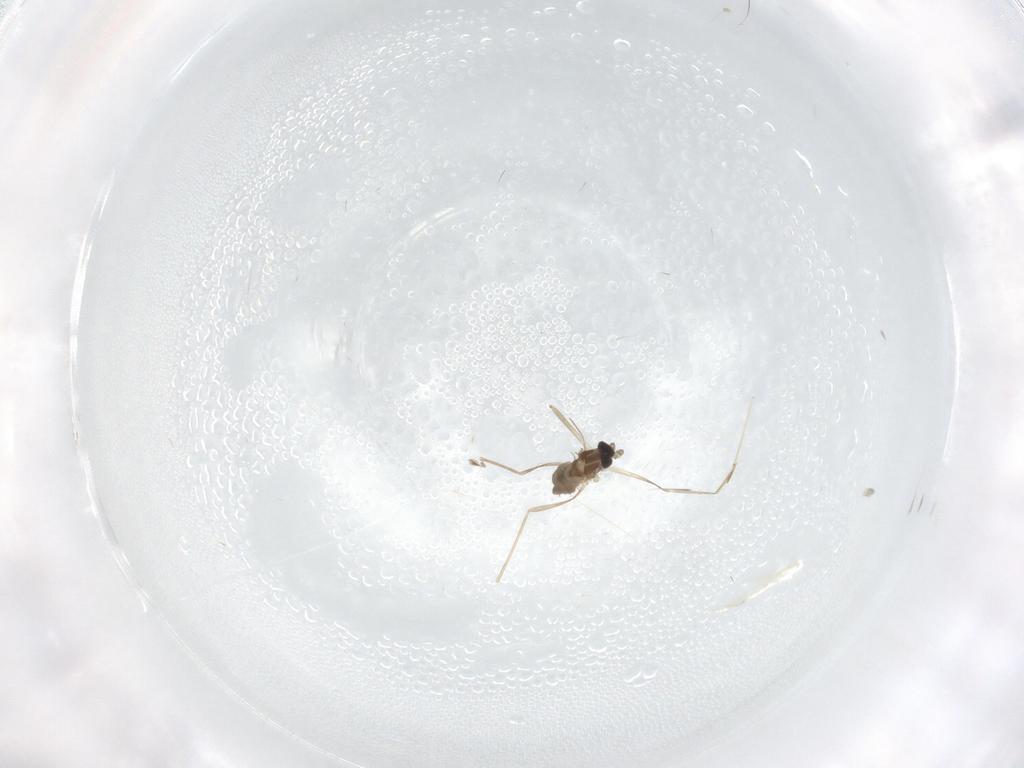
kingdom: Animalia
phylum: Arthropoda
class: Insecta
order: Diptera
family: Cecidomyiidae
